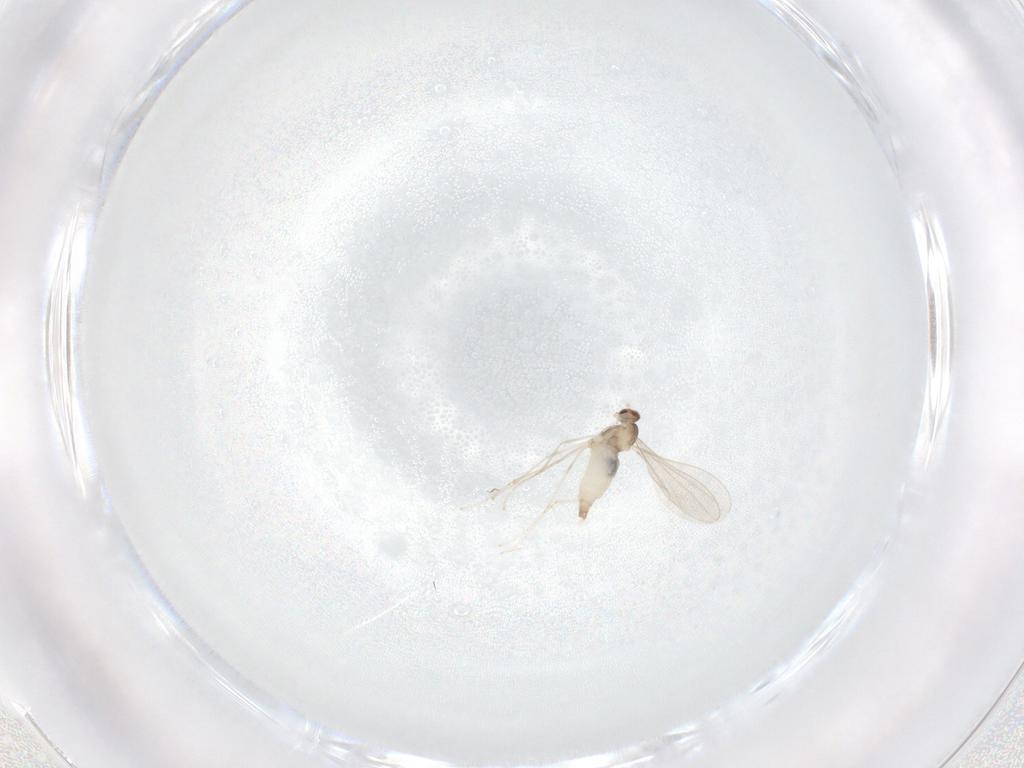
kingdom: Animalia
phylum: Arthropoda
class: Insecta
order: Diptera
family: Cecidomyiidae
